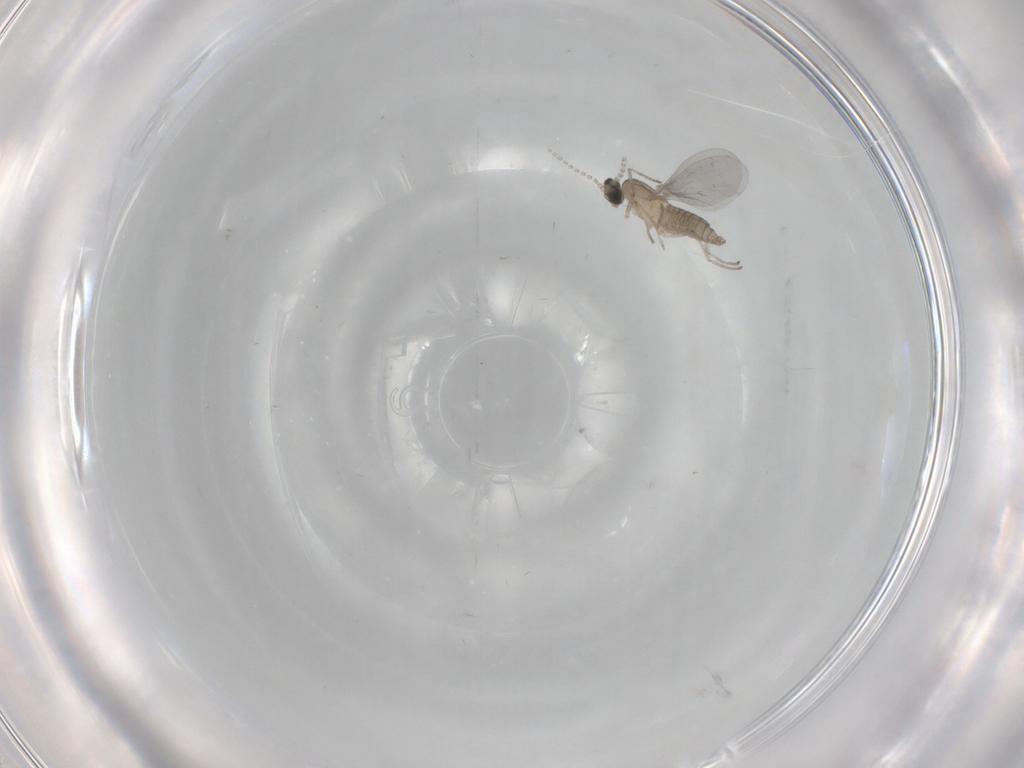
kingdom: Animalia
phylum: Arthropoda
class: Insecta
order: Diptera
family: Cecidomyiidae
